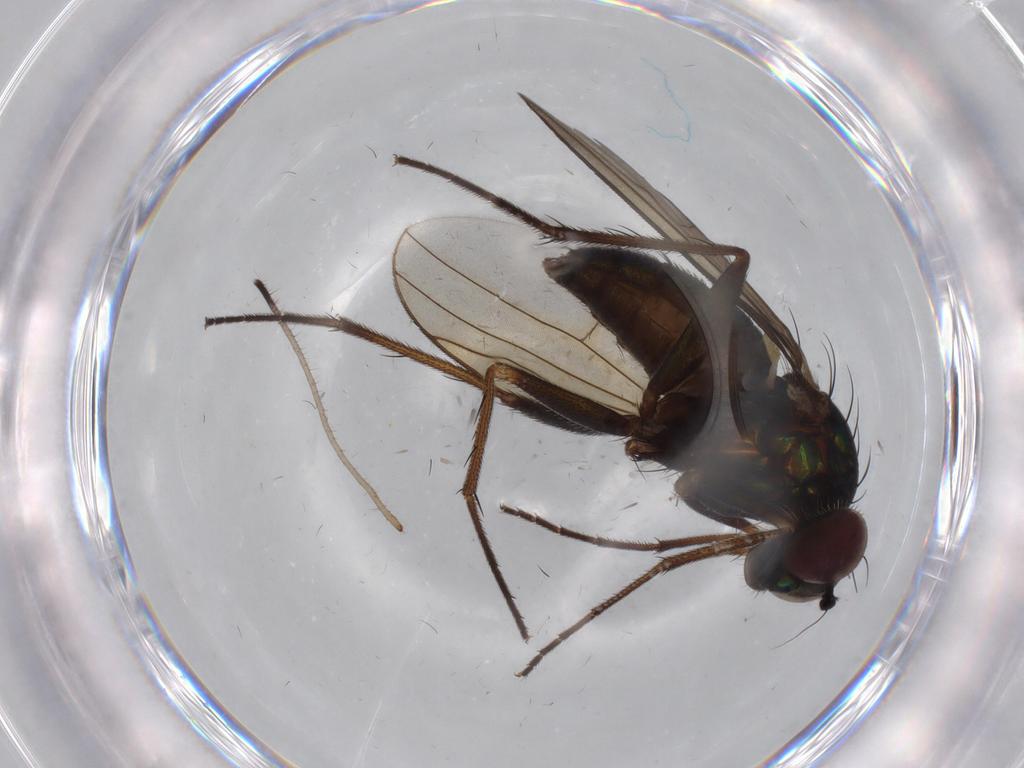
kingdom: Animalia
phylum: Arthropoda
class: Insecta
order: Diptera
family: Dolichopodidae
